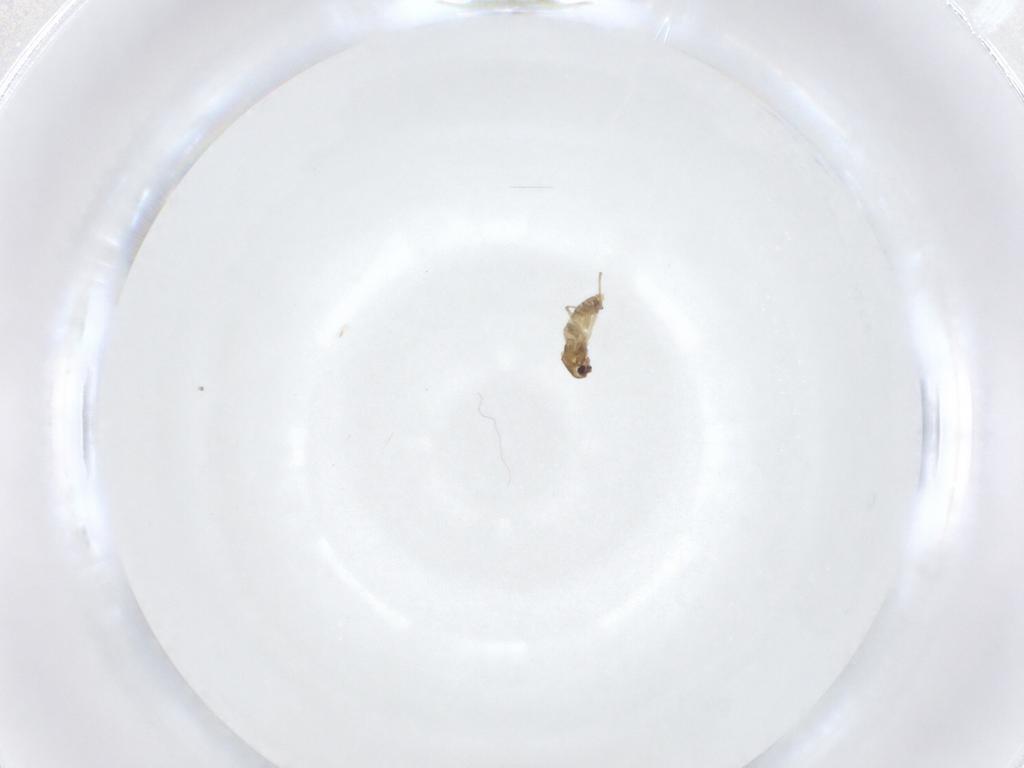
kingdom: Animalia
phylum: Arthropoda
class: Insecta
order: Diptera
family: Chironomidae
